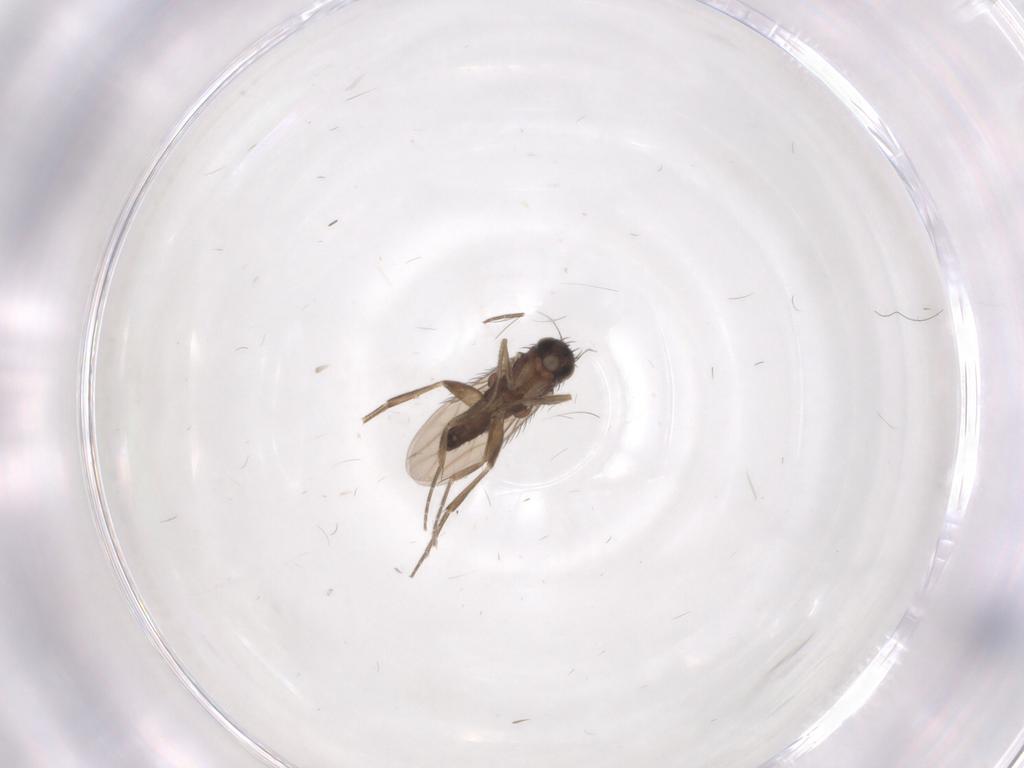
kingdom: Animalia
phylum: Arthropoda
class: Insecta
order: Diptera
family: Phoridae
